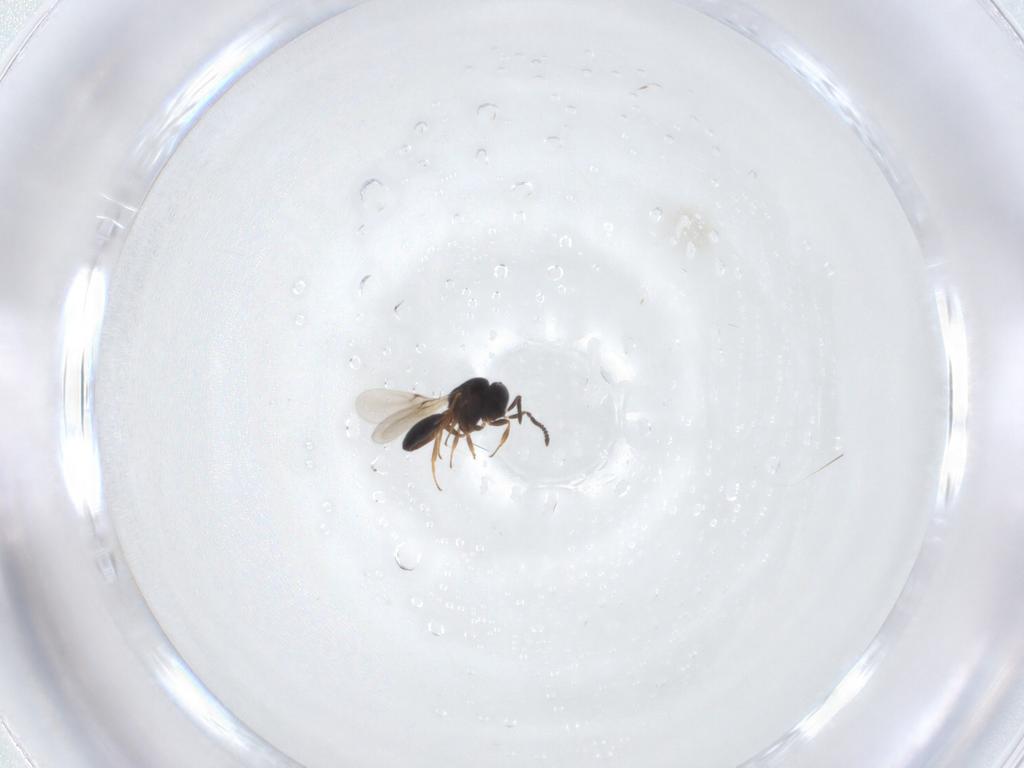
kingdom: Animalia
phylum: Arthropoda
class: Insecta
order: Hymenoptera
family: Scelionidae
